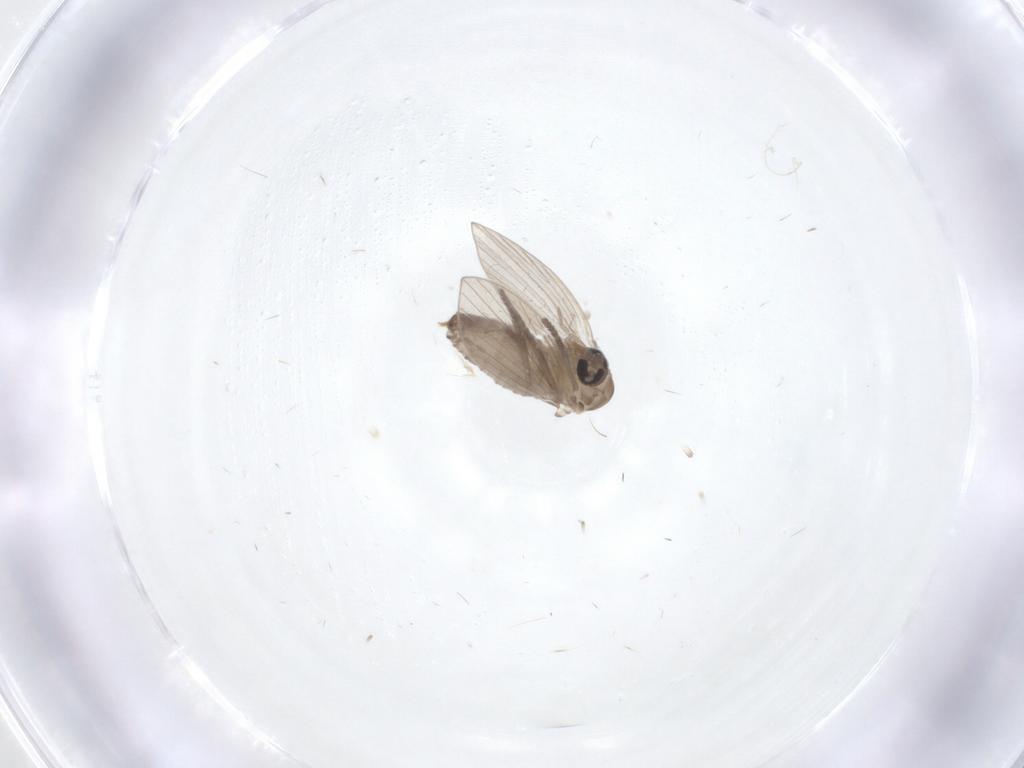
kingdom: Animalia
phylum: Arthropoda
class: Insecta
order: Diptera
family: Psychodidae
